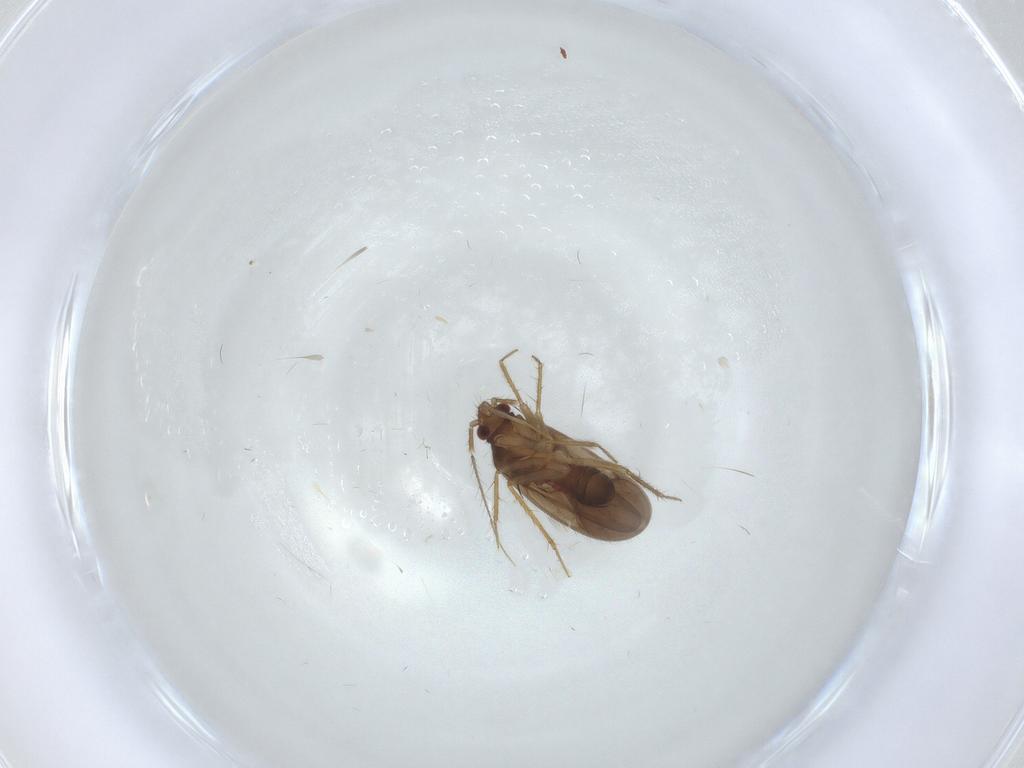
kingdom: Animalia
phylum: Arthropoda
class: Insecta
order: Hemiptera
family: Ceratocombidae
